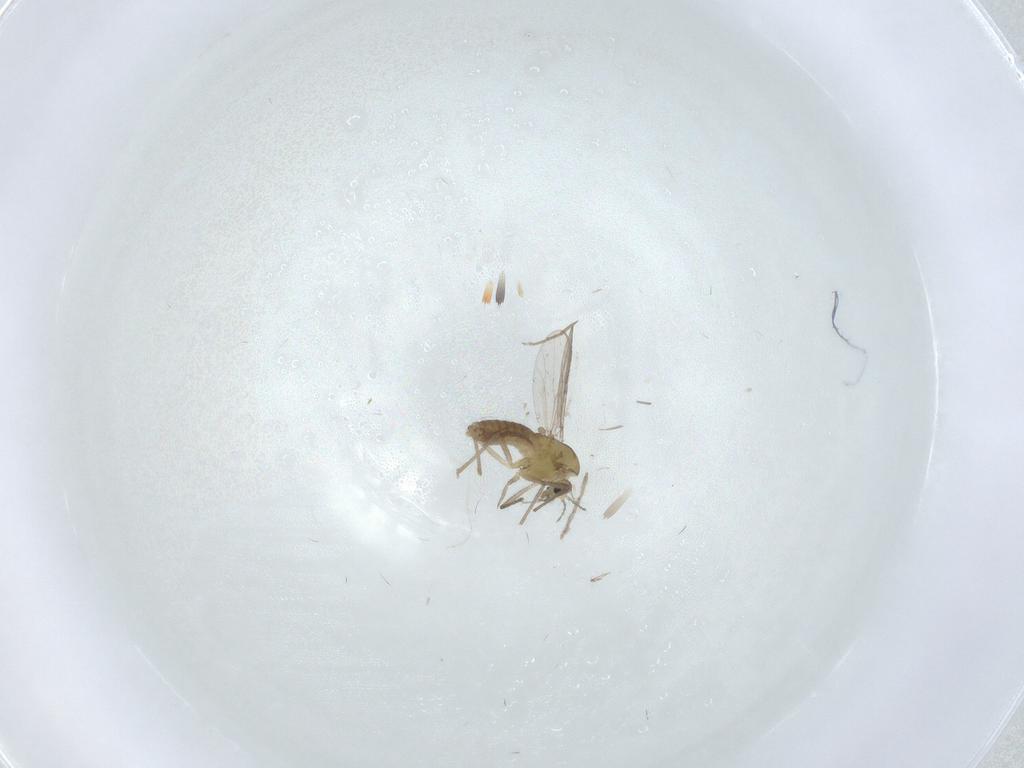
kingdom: Animalia
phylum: Arthropoda
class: Insecta
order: Diptera
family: Chironomidae
